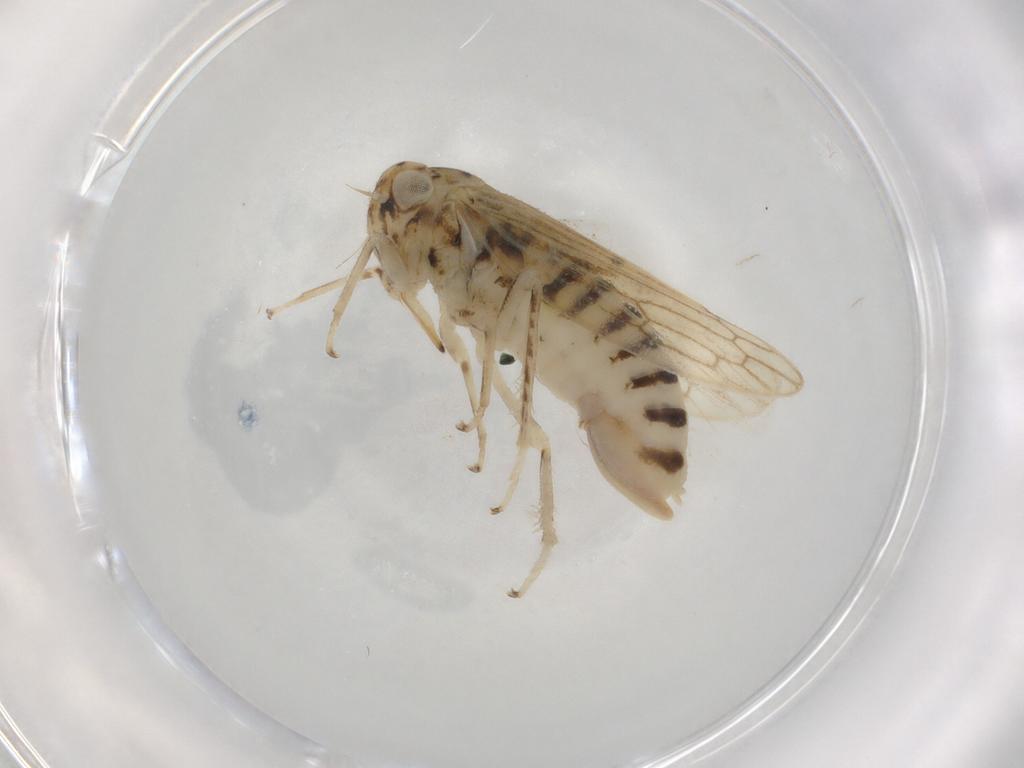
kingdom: Animalia
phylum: Arthropoda
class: Insecta
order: Hemiptera
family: Cicadellidae
